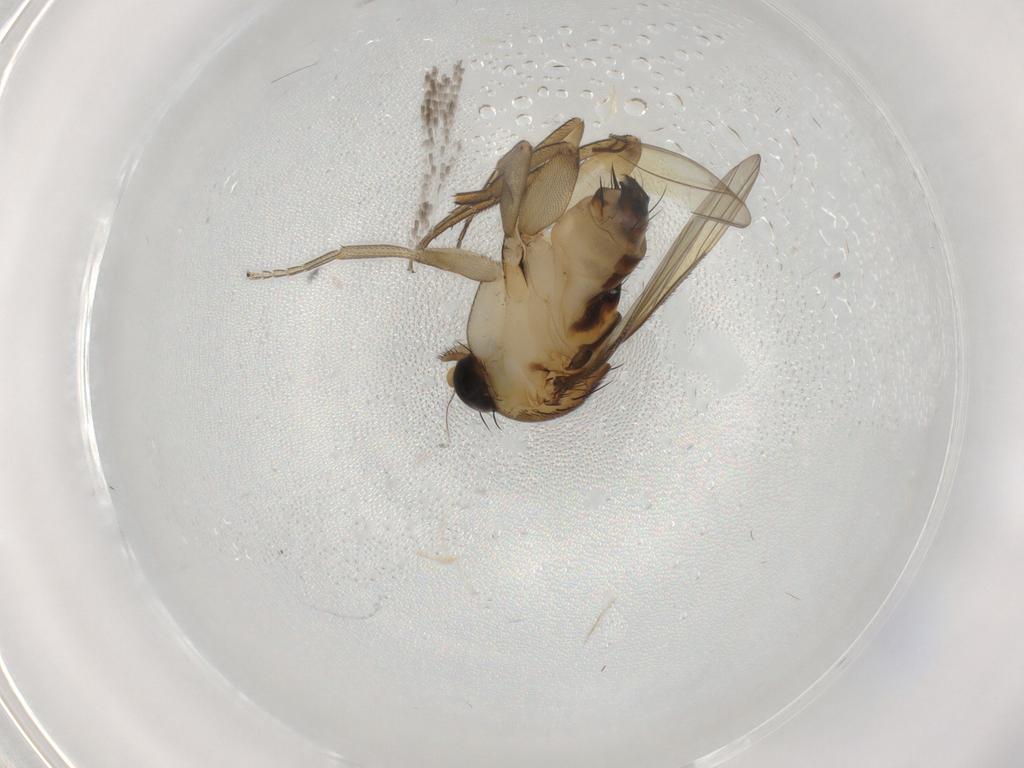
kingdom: Animalia
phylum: Arthropoda
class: Insecta
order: Diptera
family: Phoridae
